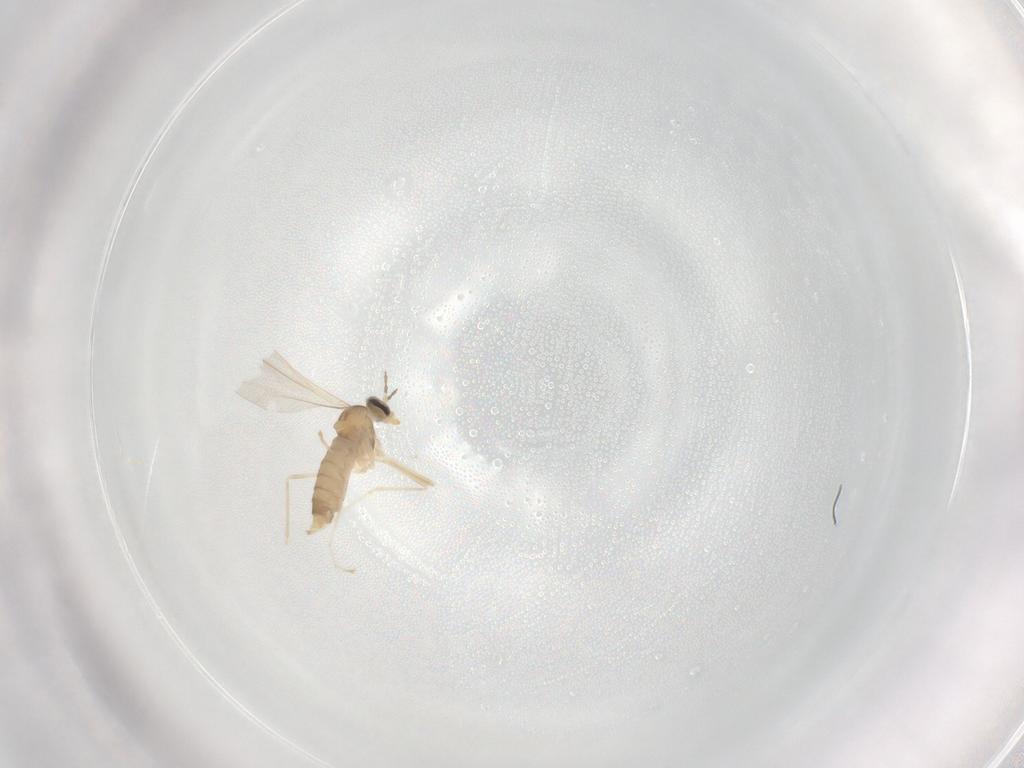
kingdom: Animalia
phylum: Arthropoda
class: Insecta
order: Diptera
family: Cecidomyiidae
